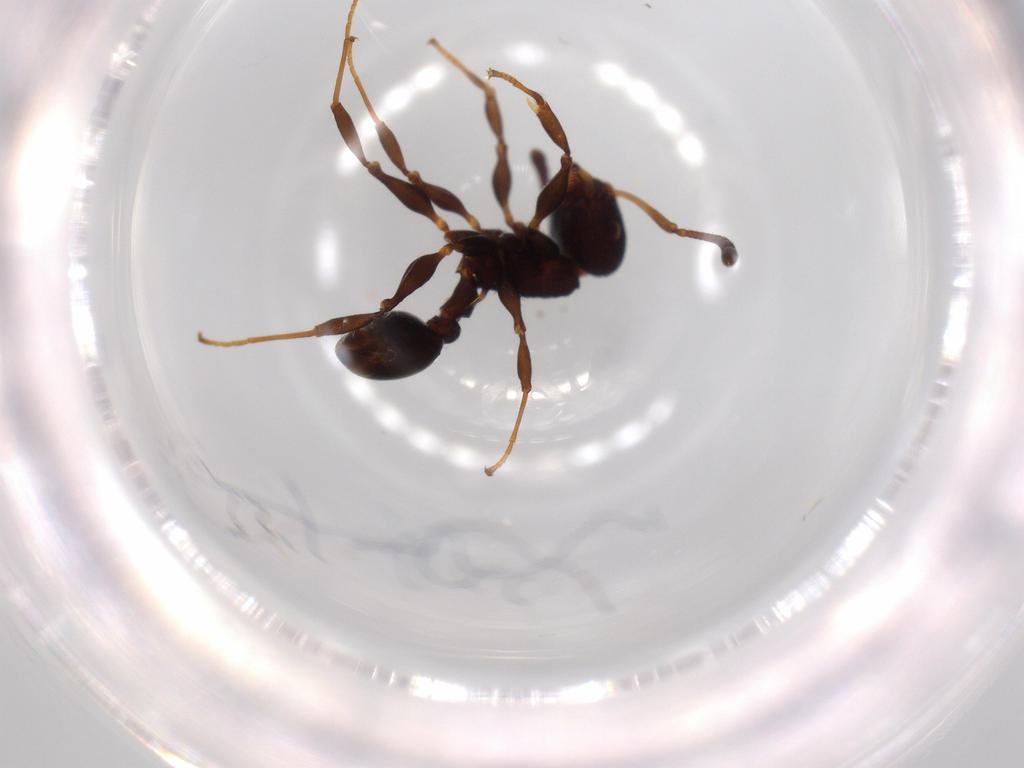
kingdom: Animalia
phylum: Arthropoda
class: Insecta
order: Hymenoptera
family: Formicidae
